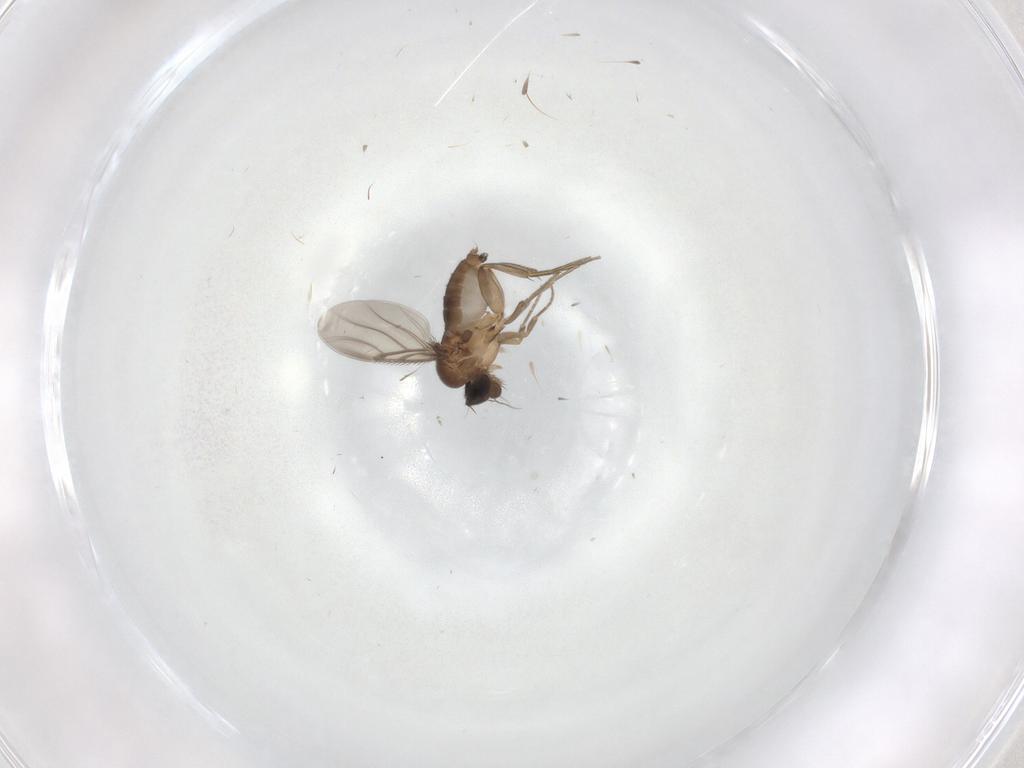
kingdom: Animalia
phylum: Arthropoda
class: Insecta
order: Diptera
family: Phoridae
